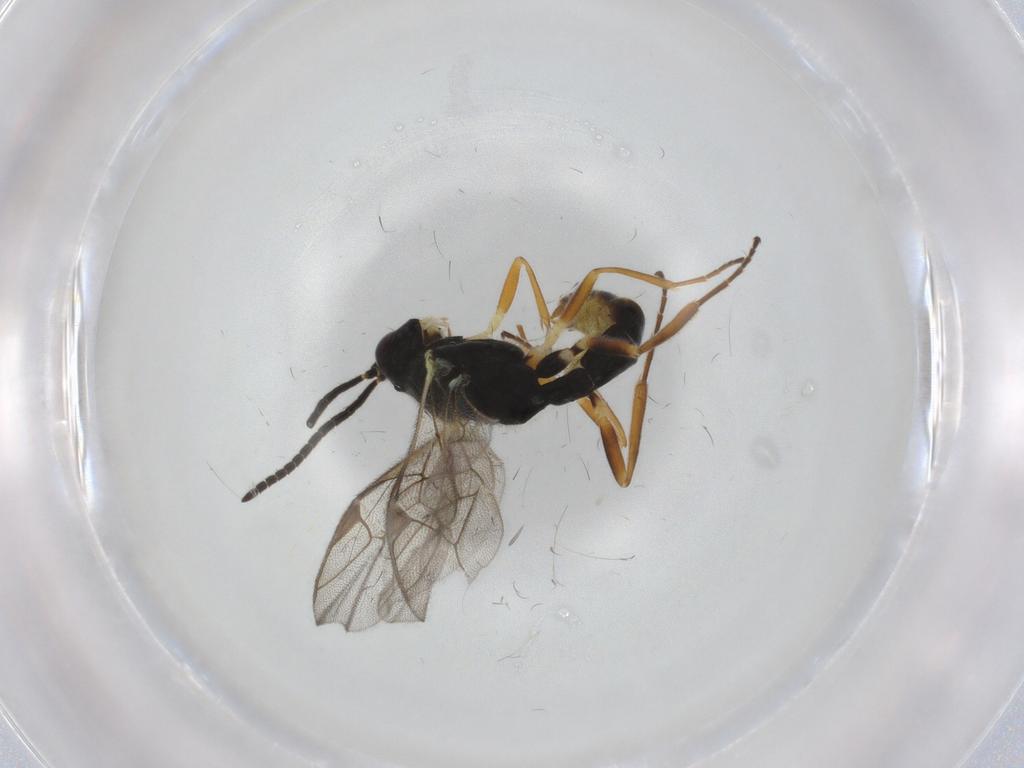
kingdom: Animalia
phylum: Arthropoda
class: Insecta
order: Hymenoptera
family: Ichneumonidae
